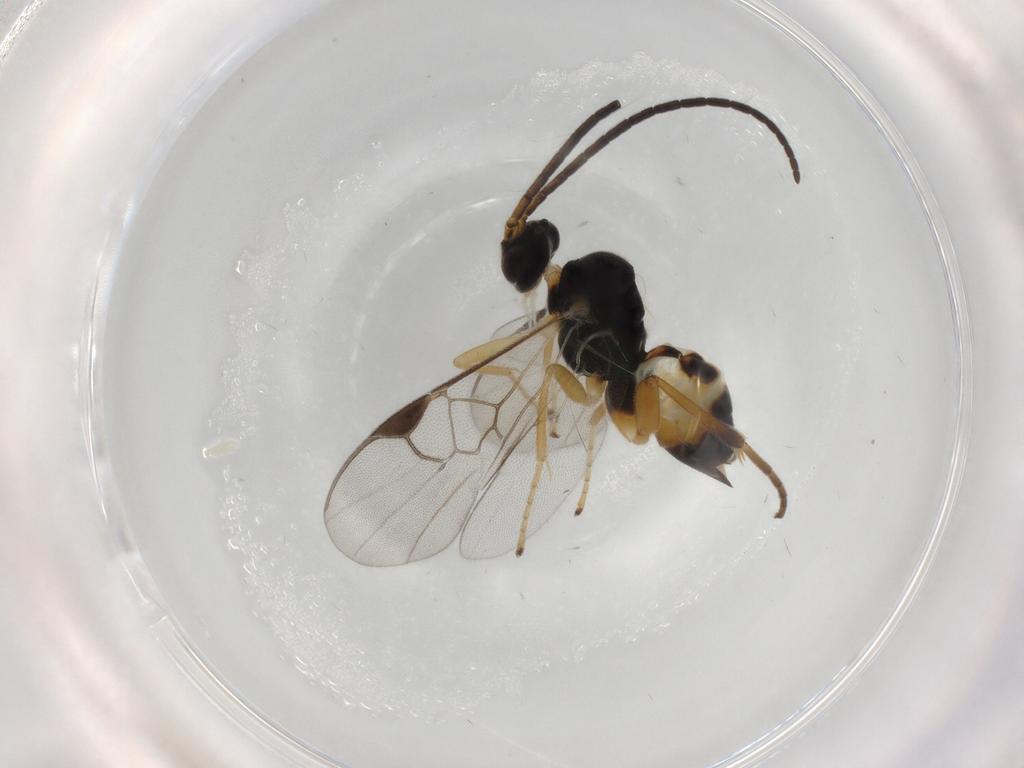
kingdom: Animalia
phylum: Arthropoda
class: Insecta
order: Hymenoptera
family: Braconidae
